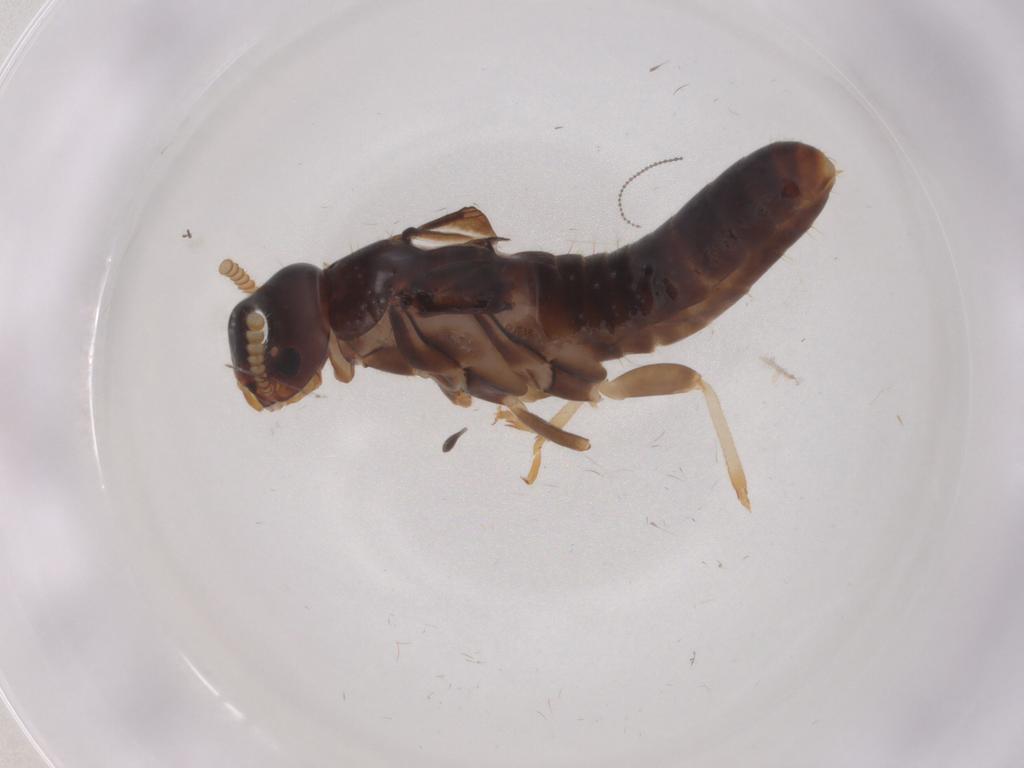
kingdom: Animalia
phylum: Arthropoda
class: Insecta
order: Blattodea
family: Kalotermitidae
